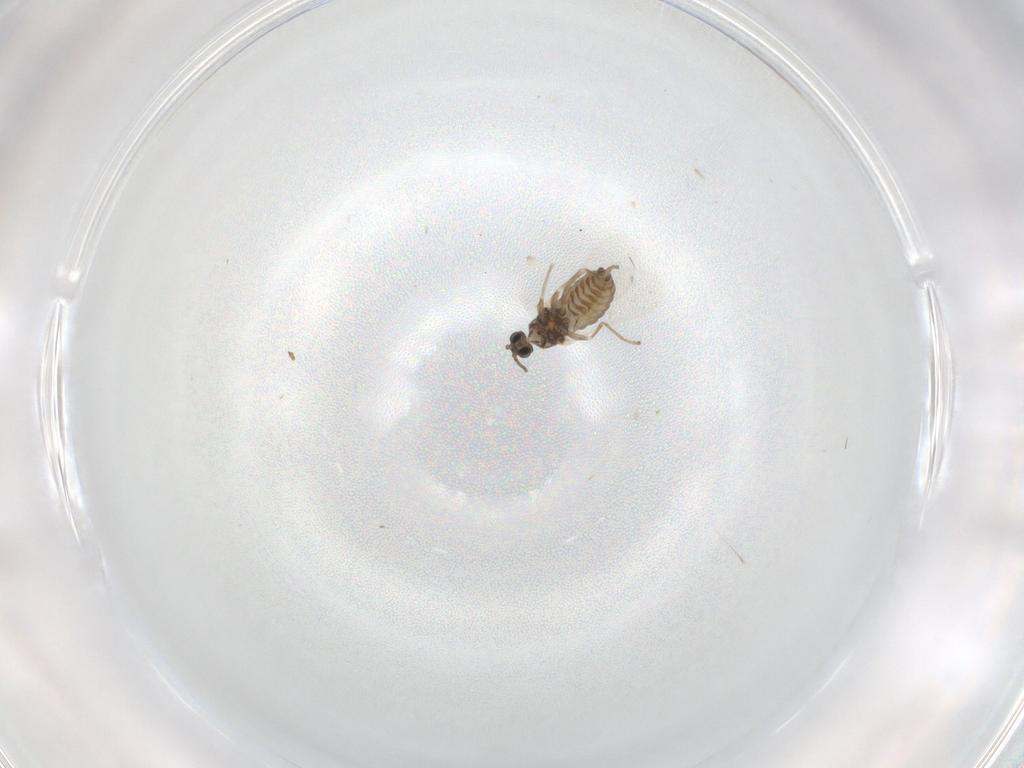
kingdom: Animalia
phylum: Arthropoda
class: Insecta
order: Diptera
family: Cecidomyiidae
